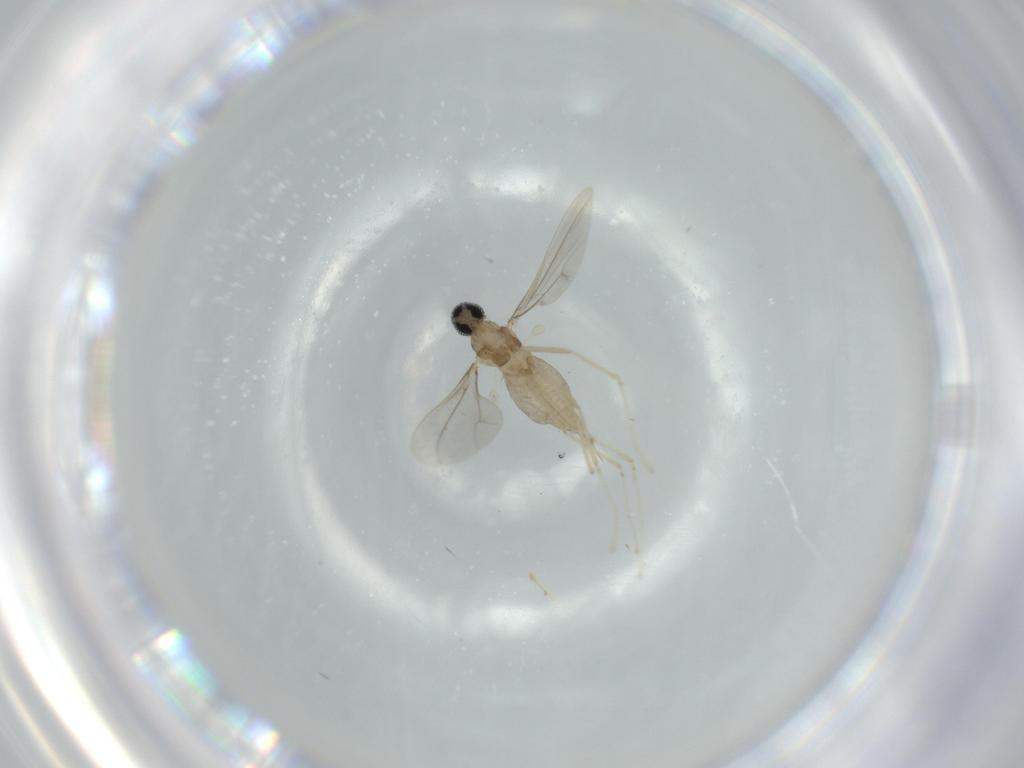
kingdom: Animalia
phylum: Arthropoda
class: Insecta
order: Diptera
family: Cecidomyiidae
